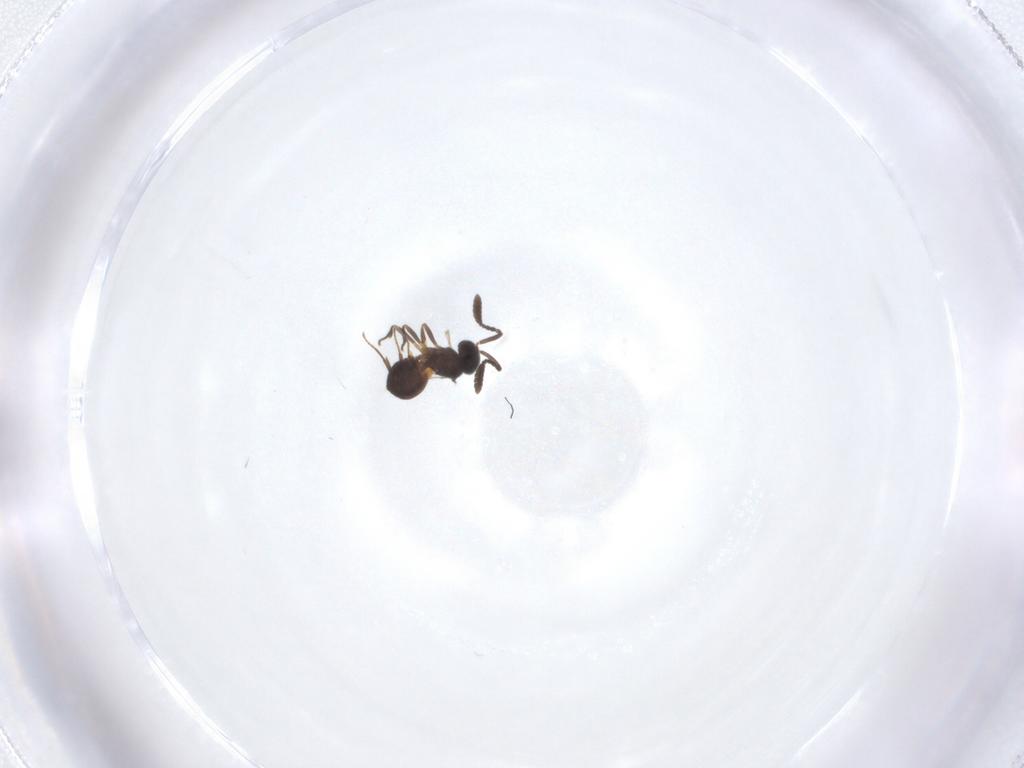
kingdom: Animalia
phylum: Arthropoda
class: Insecta
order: Hymenoptera
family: Scelionidae
